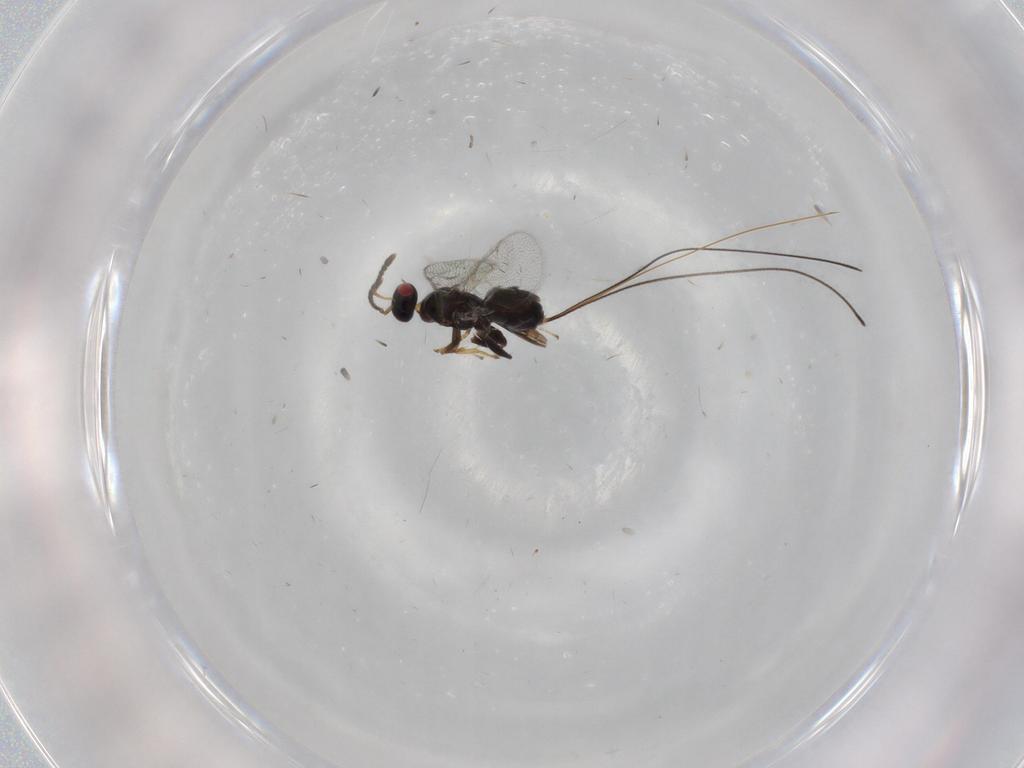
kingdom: Animalia
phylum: Arthropoda
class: Insecta
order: Hymenoptera
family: Torymidae
